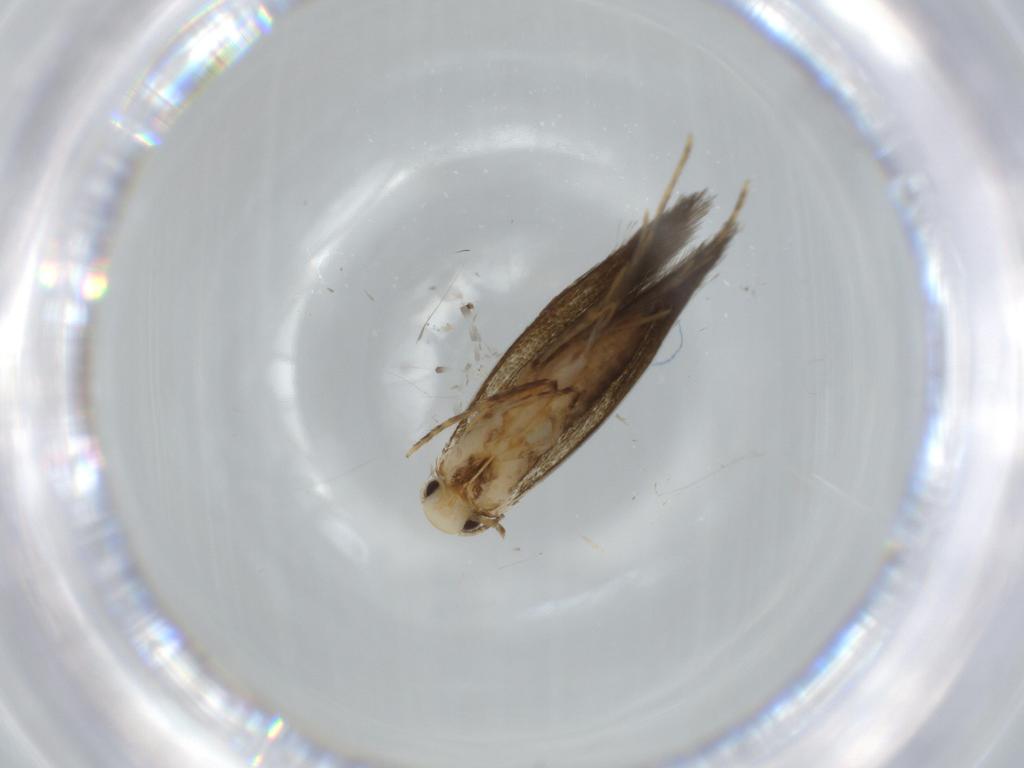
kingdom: Animalia
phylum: Arthropoda
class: Insecta
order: Lepidoptera
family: Tineidae
